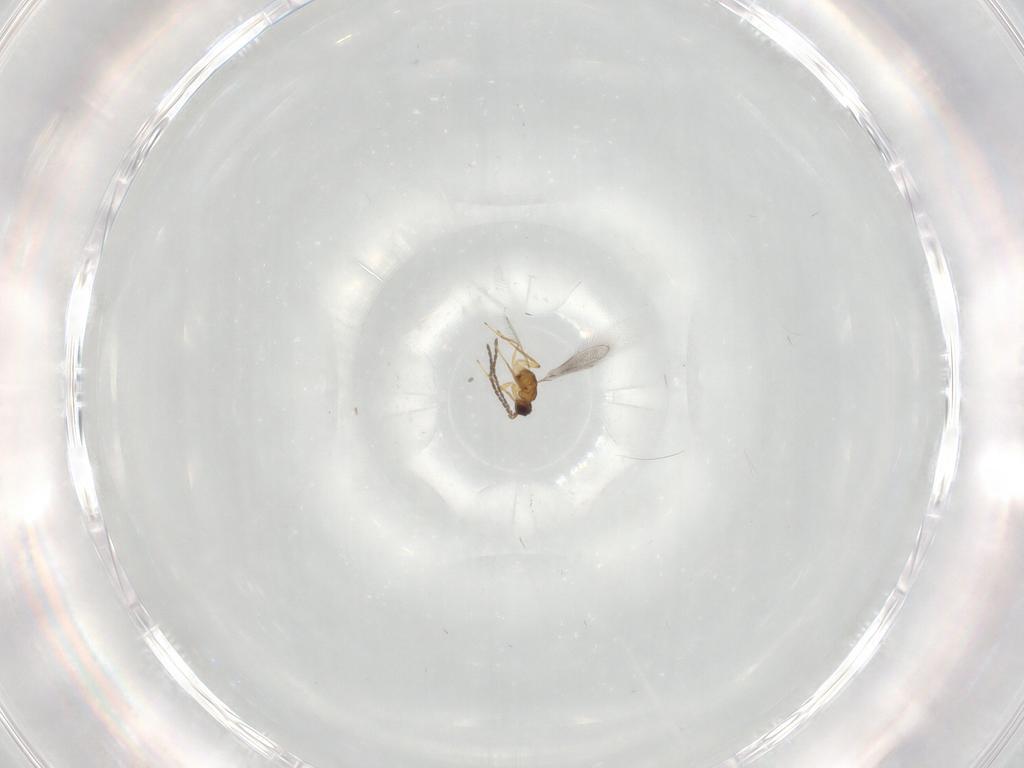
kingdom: Animalia
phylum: Arthropoda
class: Insecta
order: Hymenoptera
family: Mymaridae
